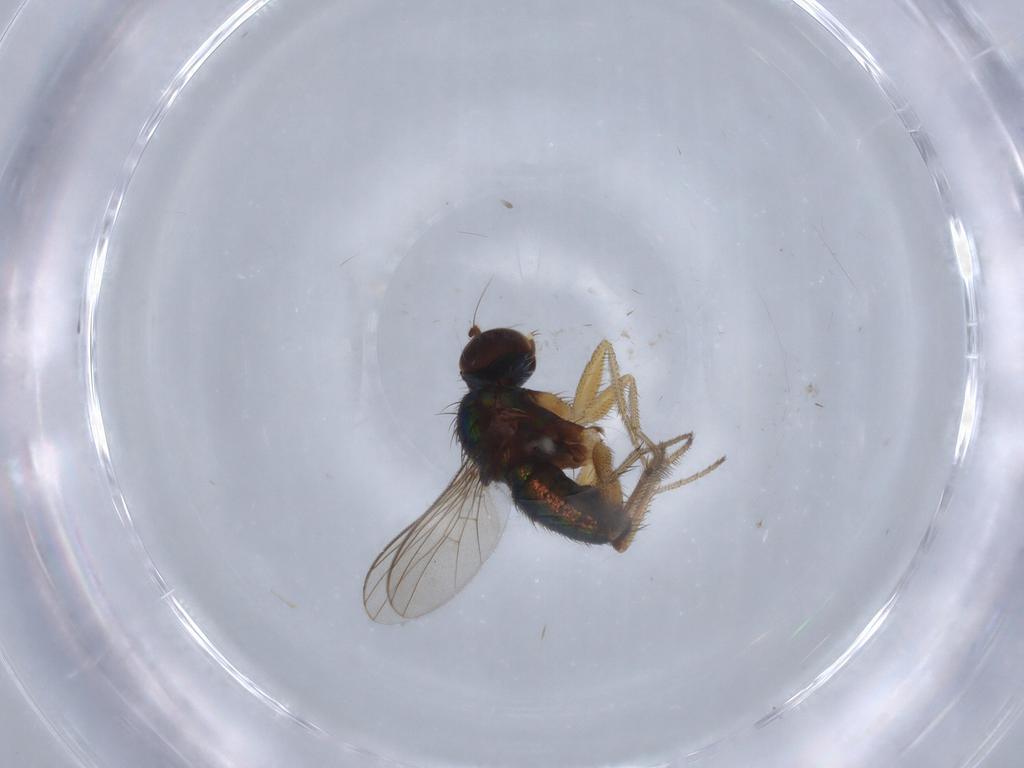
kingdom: Animalia
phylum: Arthropoda
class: Insecta
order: Diptera
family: Dolichopodidae
